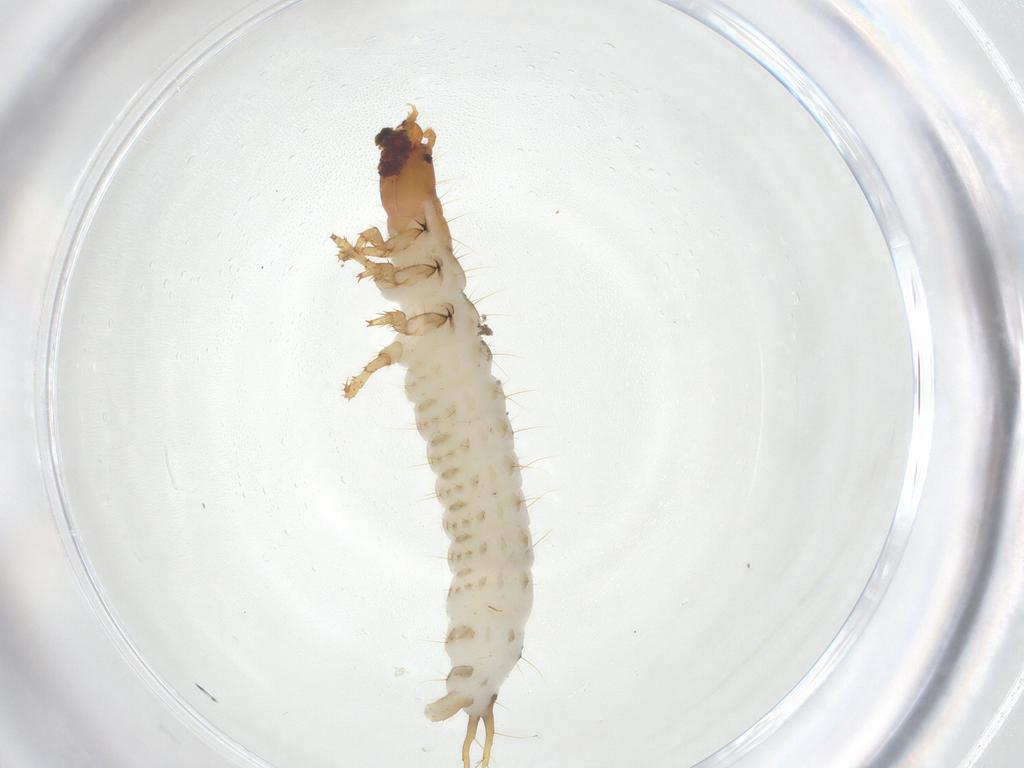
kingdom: Animalia
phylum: Arthropoda
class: Insecta
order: Coleoptera
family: Carabidae
